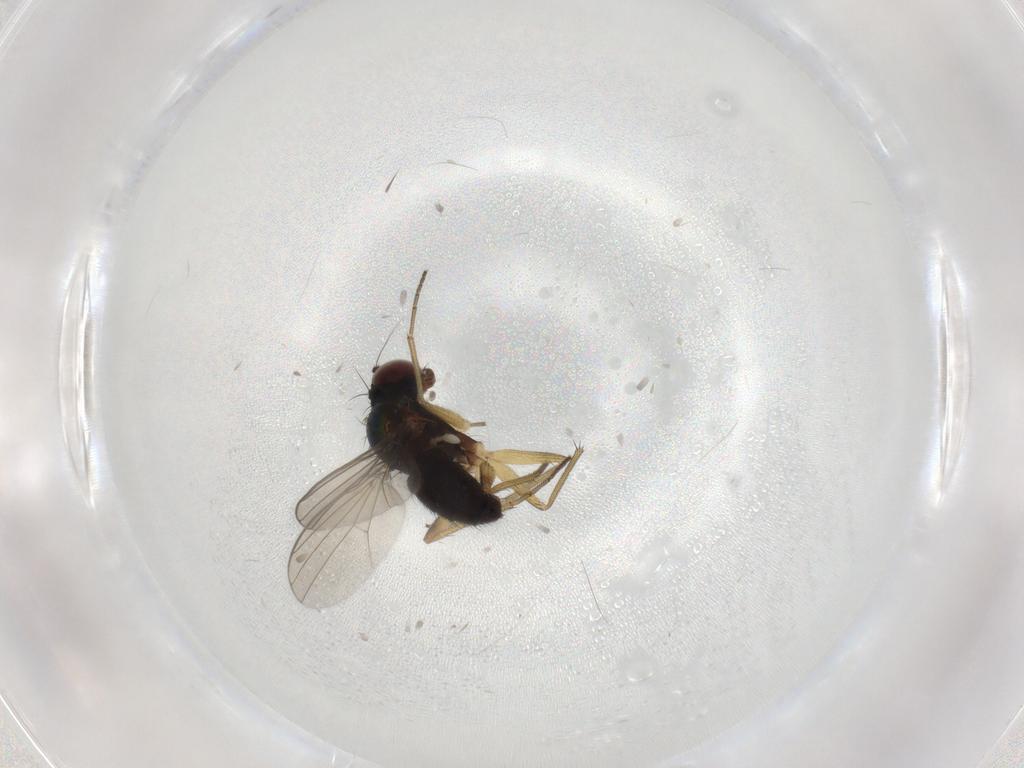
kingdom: Animalia
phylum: Arthropoda
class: Insecta
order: Diptera
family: Dolichopodidae
